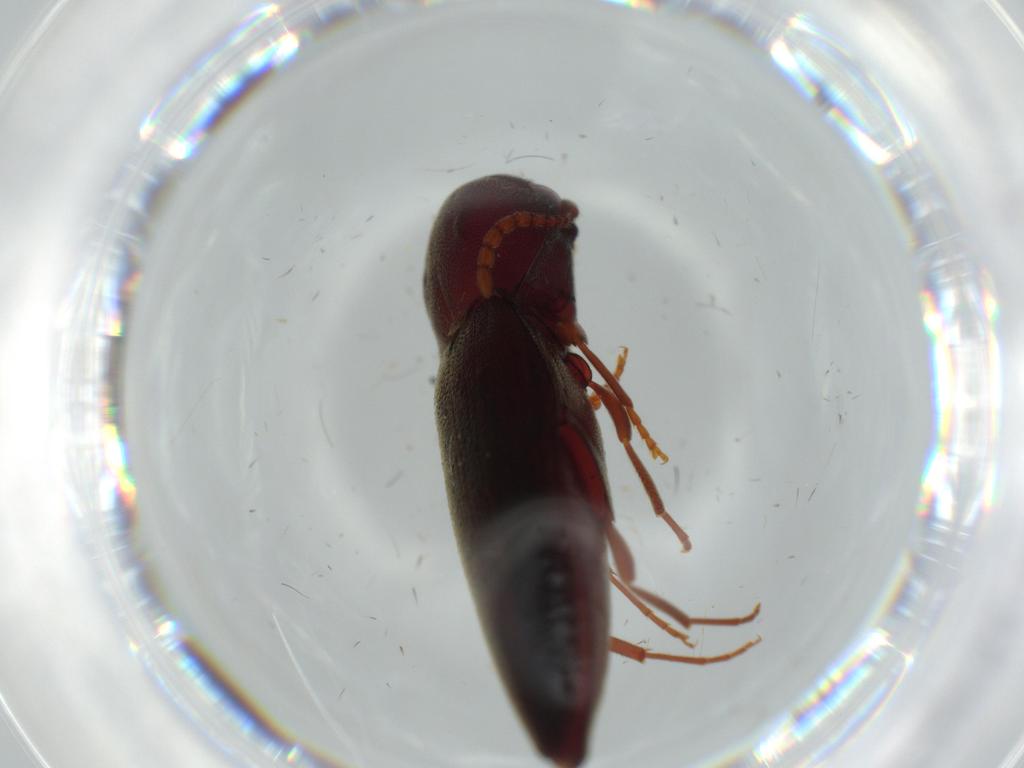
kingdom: Animalia
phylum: Arthropoda
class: Insecta
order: Coleoptera
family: Eucnemidae
